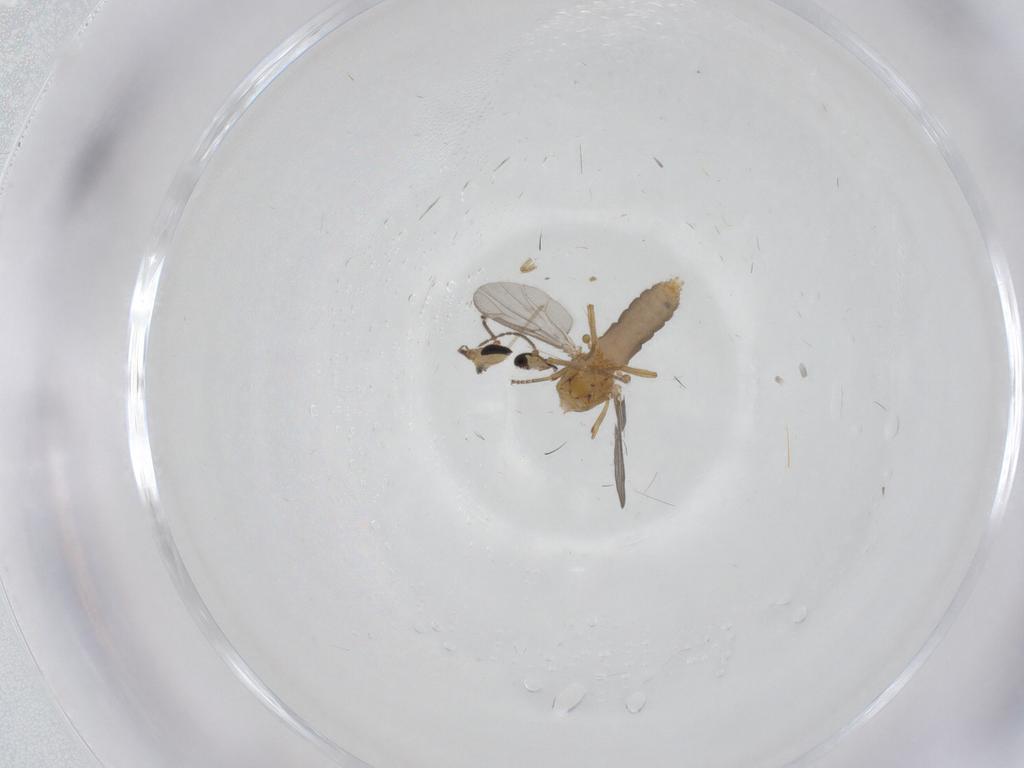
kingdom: Animalia
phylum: Arthropoda
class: Insecta
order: Diptera
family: Ceratopogonidae
